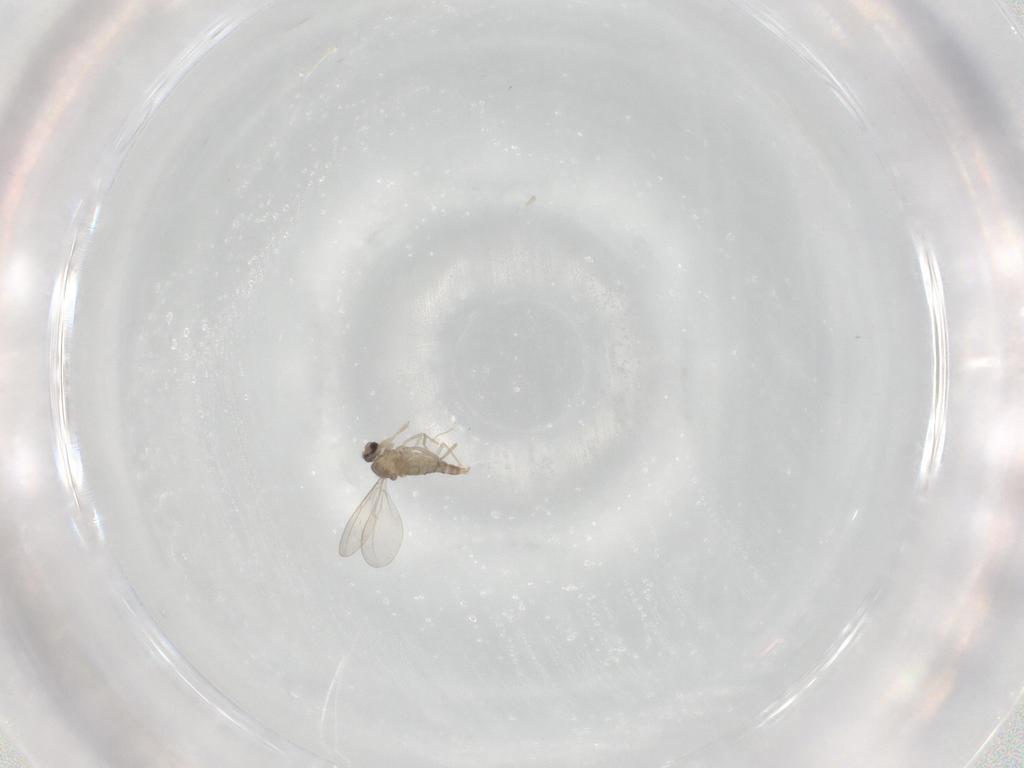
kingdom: Animalia
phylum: Arthropoda
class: Insecta
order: Diptera
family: Cecidomyiidae
